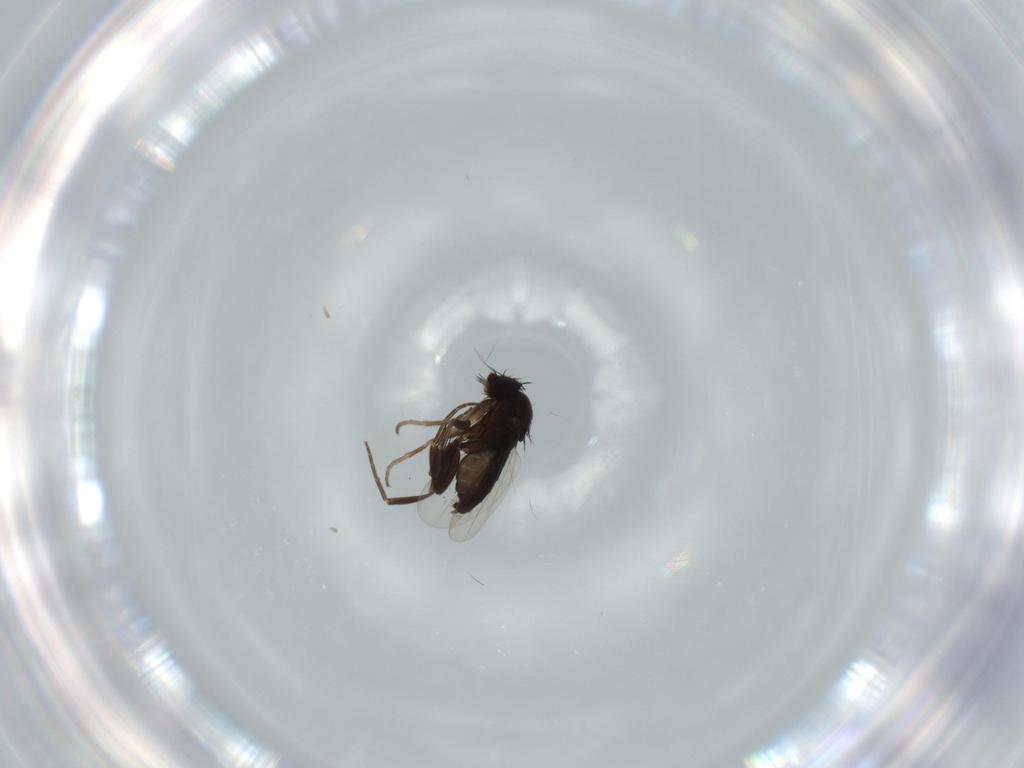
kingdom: Animalia
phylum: Arthropoda
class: Insecta
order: Diptera
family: Phoridae
